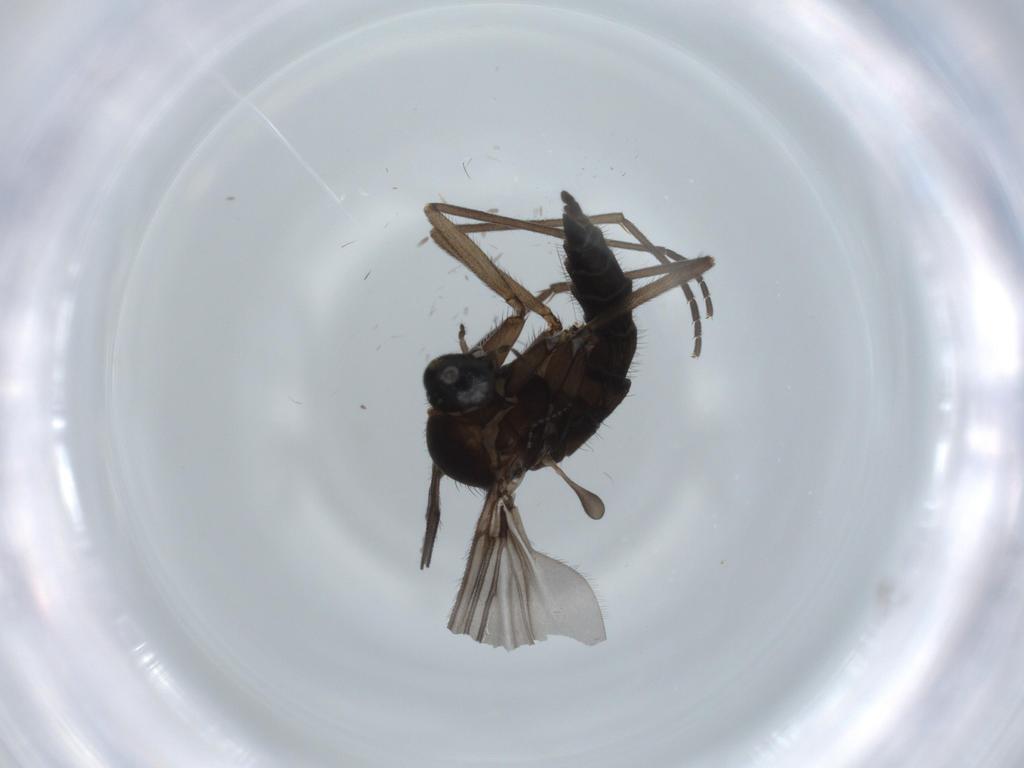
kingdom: Animalia
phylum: Arthropoda
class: Insecta
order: Diptera
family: Sciaridae
